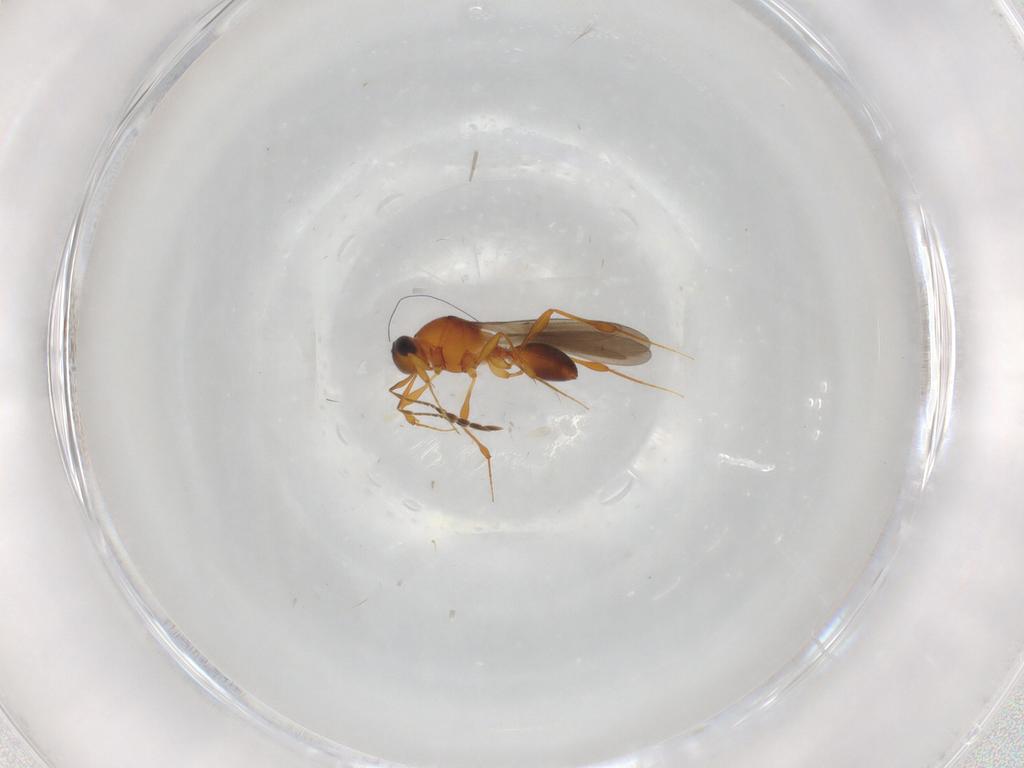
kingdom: Animalia
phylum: Arthropoda
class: Insecta
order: Hymenoptera
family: Platygastridae
